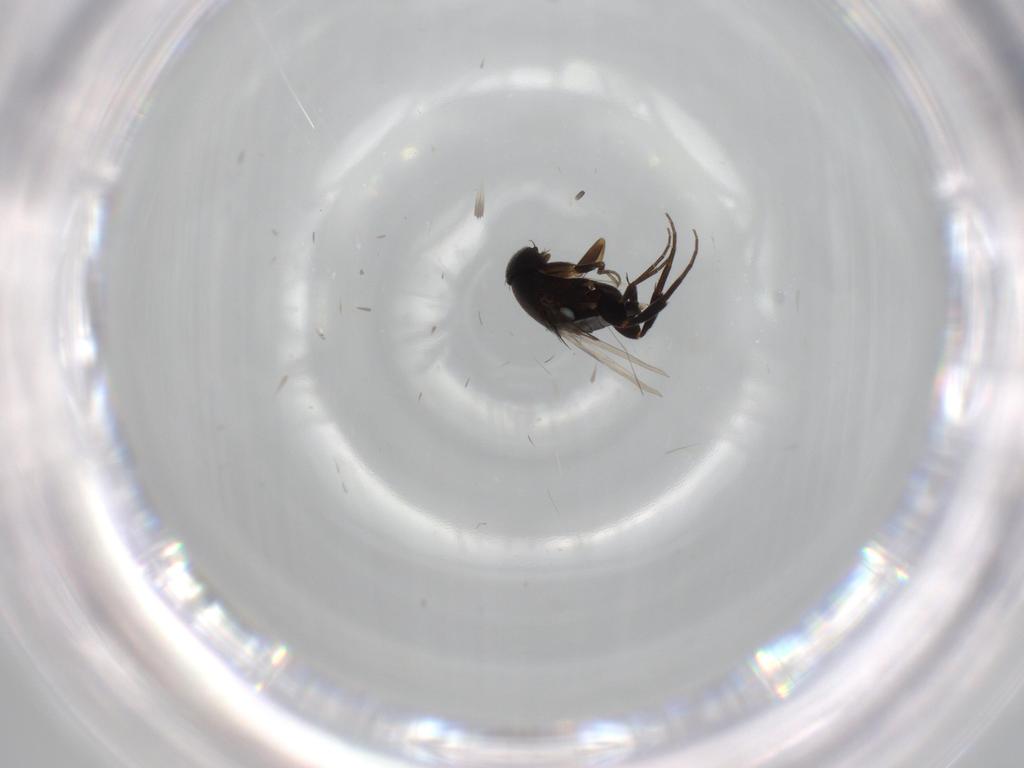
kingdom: Animalia
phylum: Arthropoda
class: Insecta
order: Diptera
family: Phoridae
